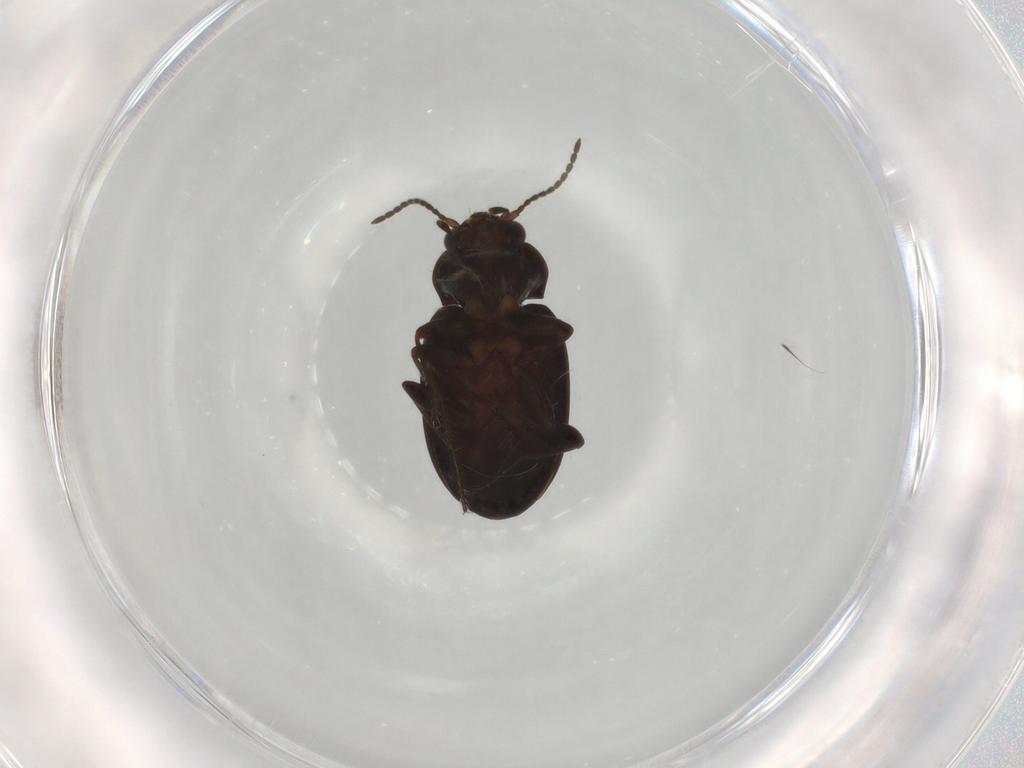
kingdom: Animalia
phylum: Arthropoda
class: Insecta
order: Coleoptera
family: Carabidae
